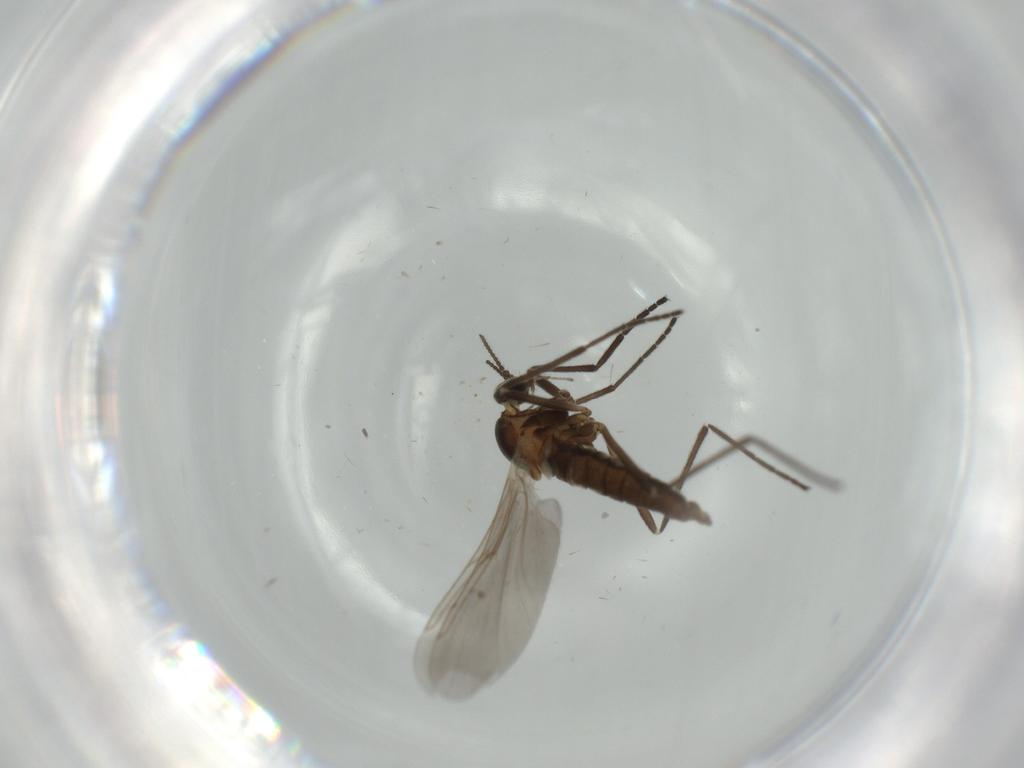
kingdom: Animalia
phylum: Arthropoda
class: Insecta
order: Diptera
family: Cecidomyiidae
